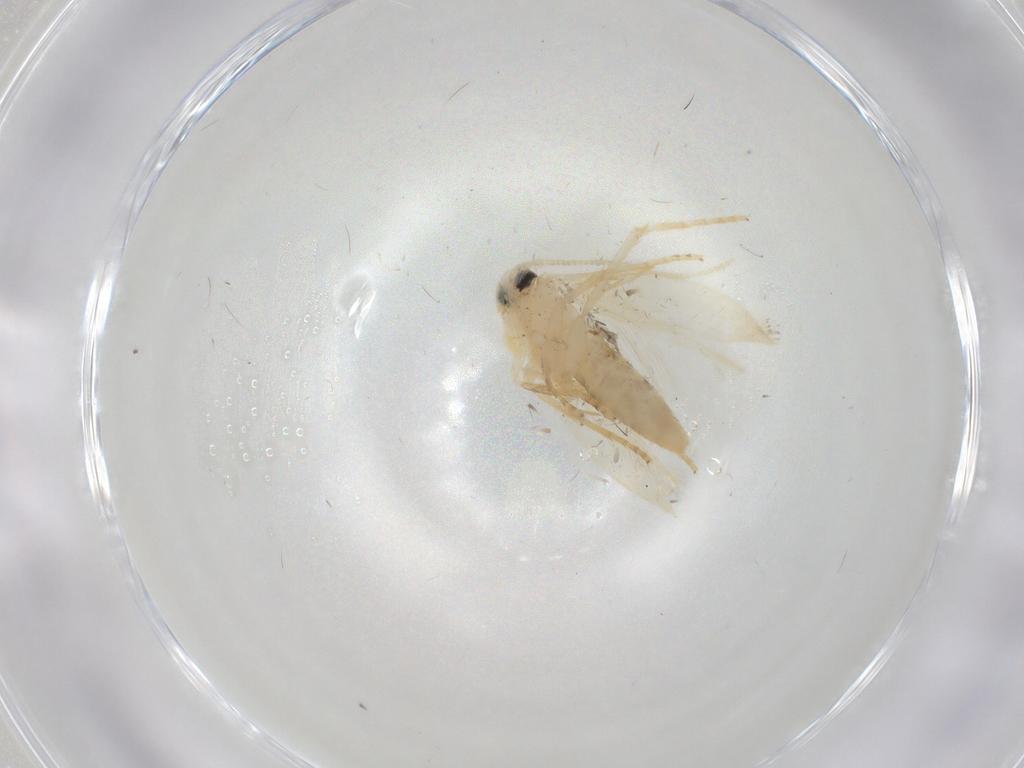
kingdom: Animalia
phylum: Arthropoda
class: Insecta
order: Lepidoptera
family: Opostegidae
